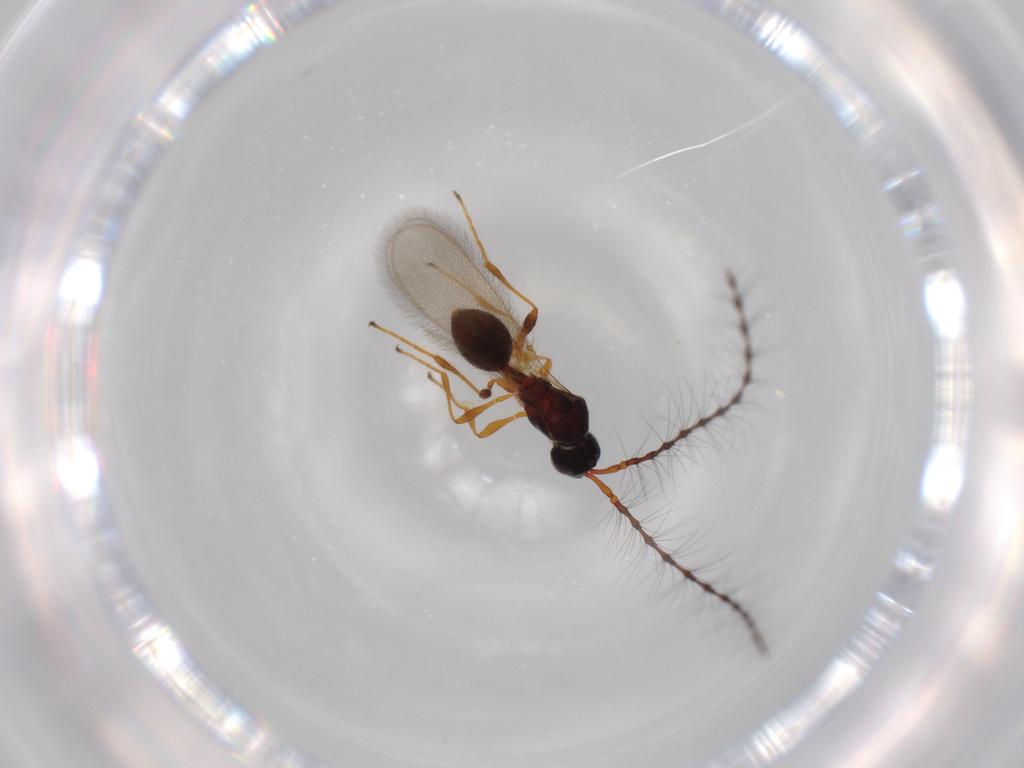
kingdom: Animalia
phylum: Arthropoda
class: Insecta
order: Hymenoptera
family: Diapriidae
